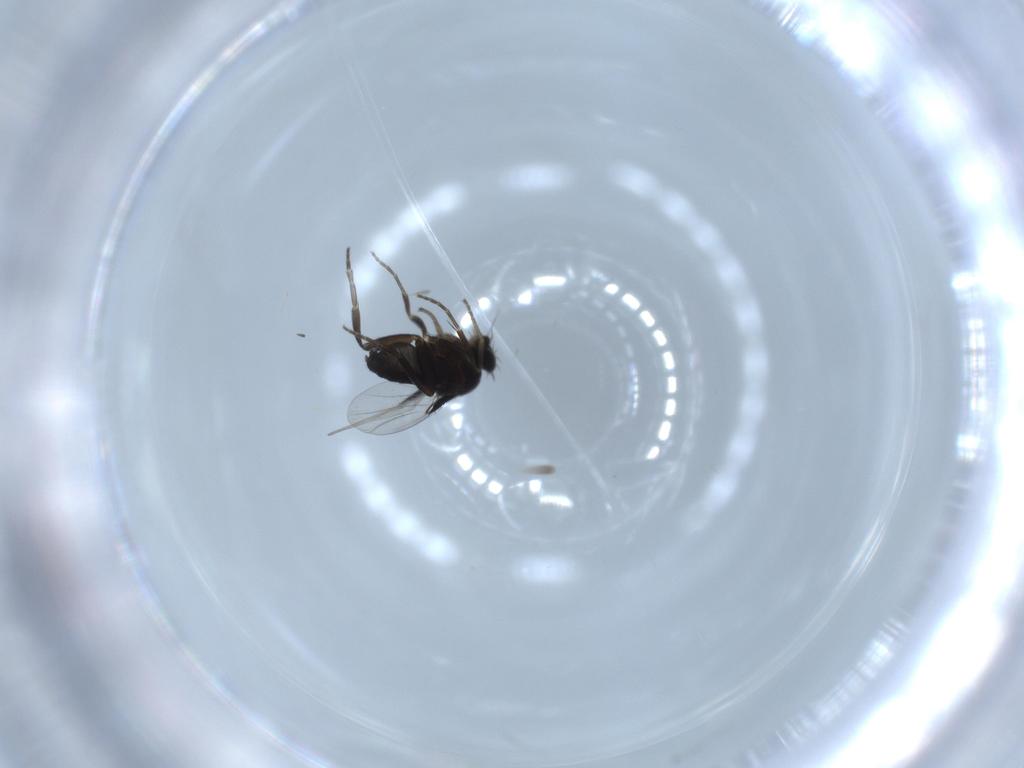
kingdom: Animalia
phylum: Arthropoda
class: Insecta
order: Diptera
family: Phoridae
